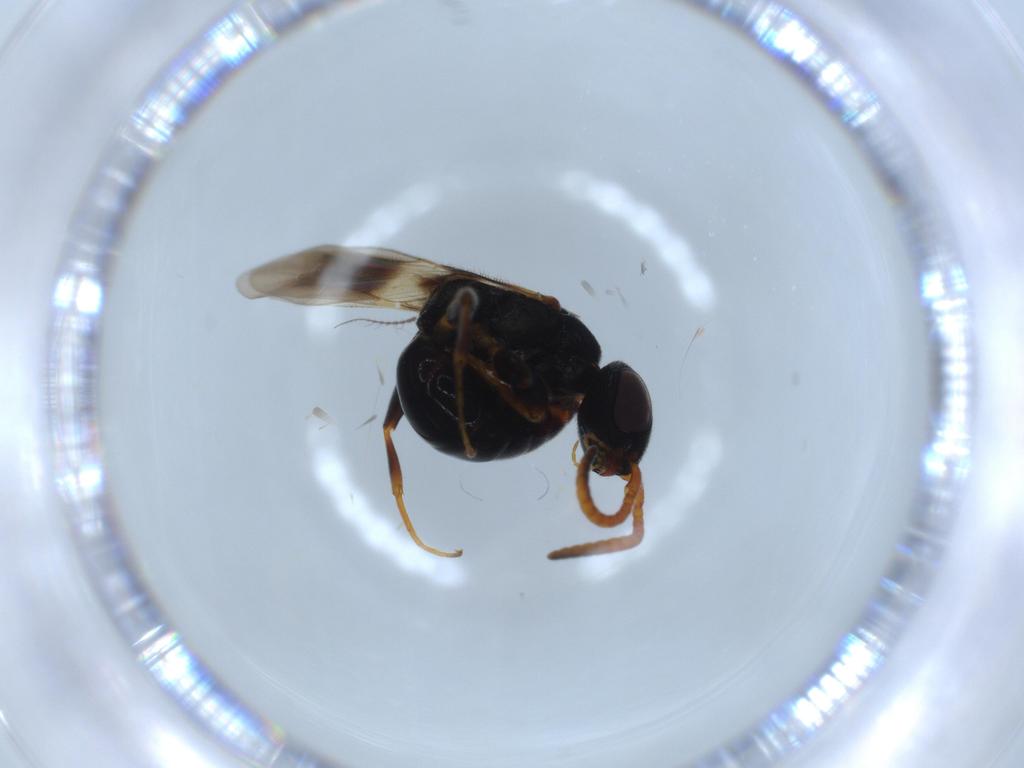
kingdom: Animalia
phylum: Arthropoda
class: Insecta
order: Hymenoptera
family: Bethylidae
